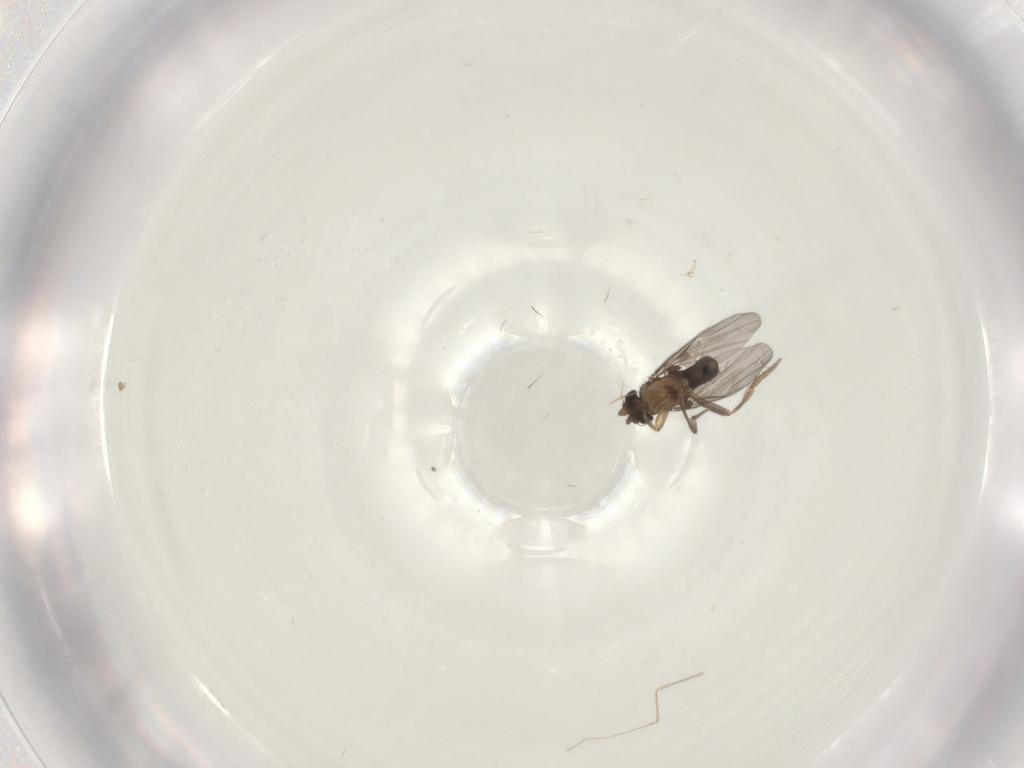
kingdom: Animalia
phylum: Arthropoda
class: Insecta
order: Diptera
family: Chironomidae
